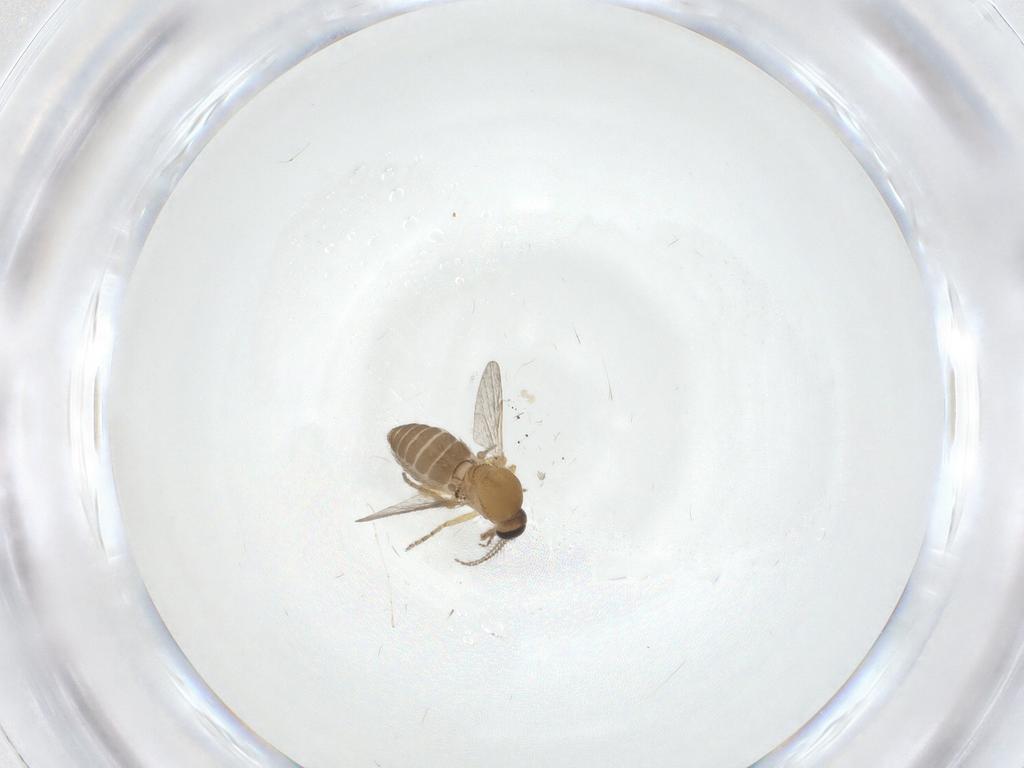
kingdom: Animalia
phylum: Arthropoda
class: Insecta
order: Diptera
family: Ceratopogonidae
